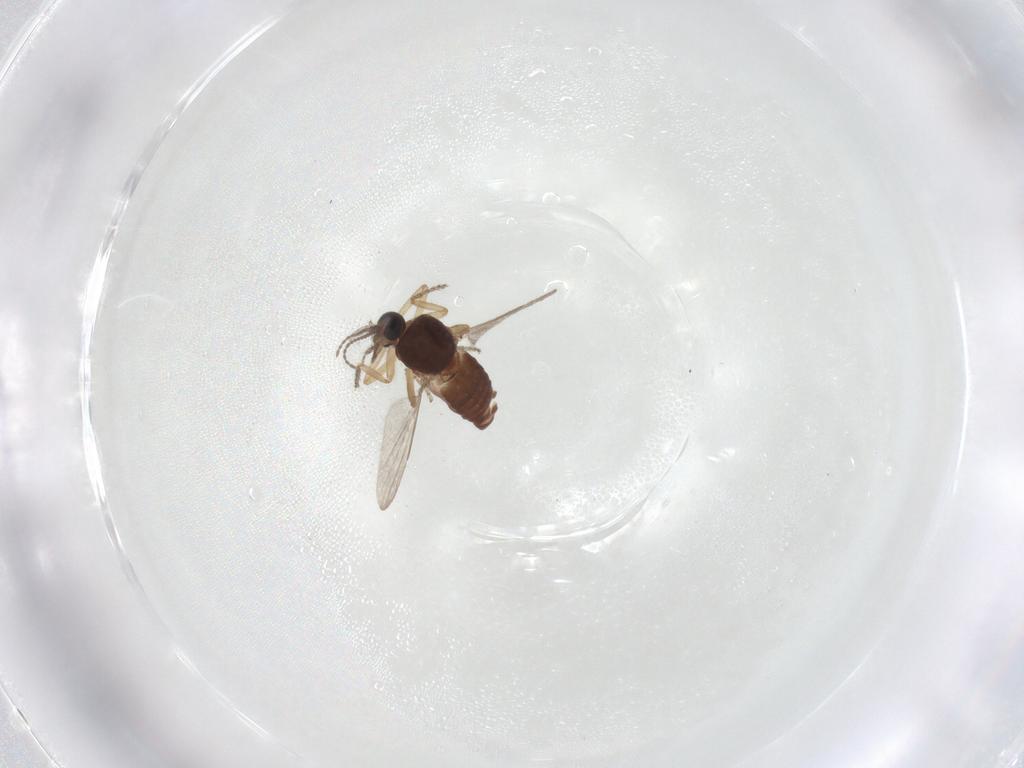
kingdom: Animalia
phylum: Arthropoda
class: Insecta
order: Diptera
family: Ceratopogonidae
